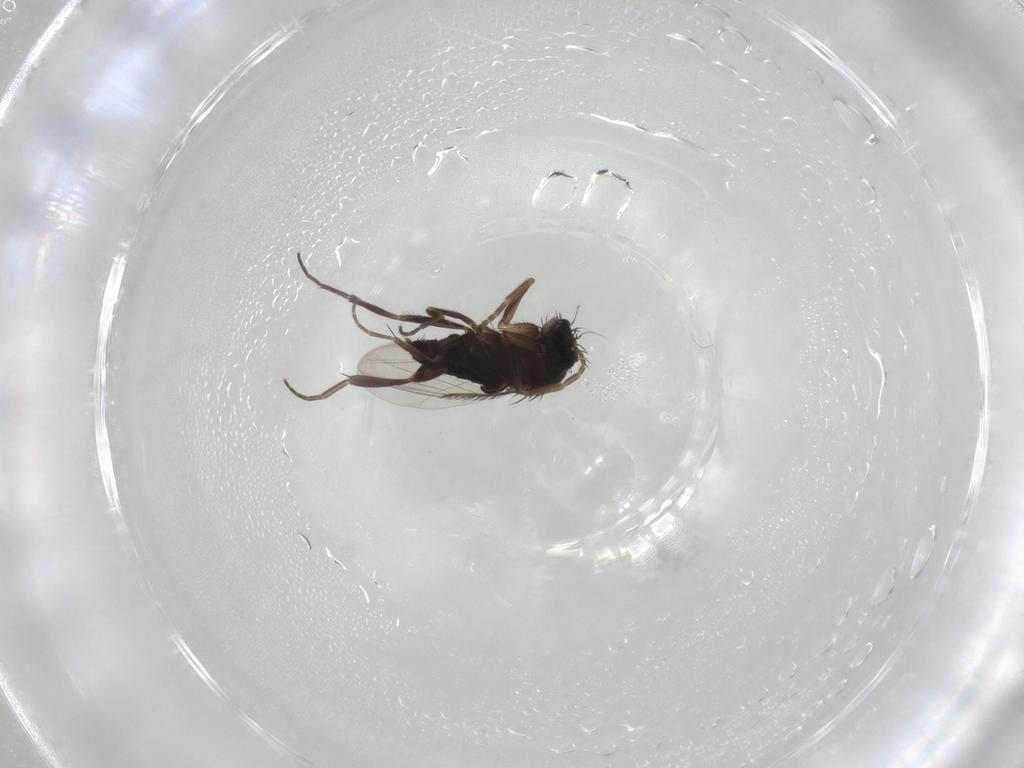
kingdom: Animalia
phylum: Arthropoda
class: Insecta
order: Diptera
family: Phoridae
